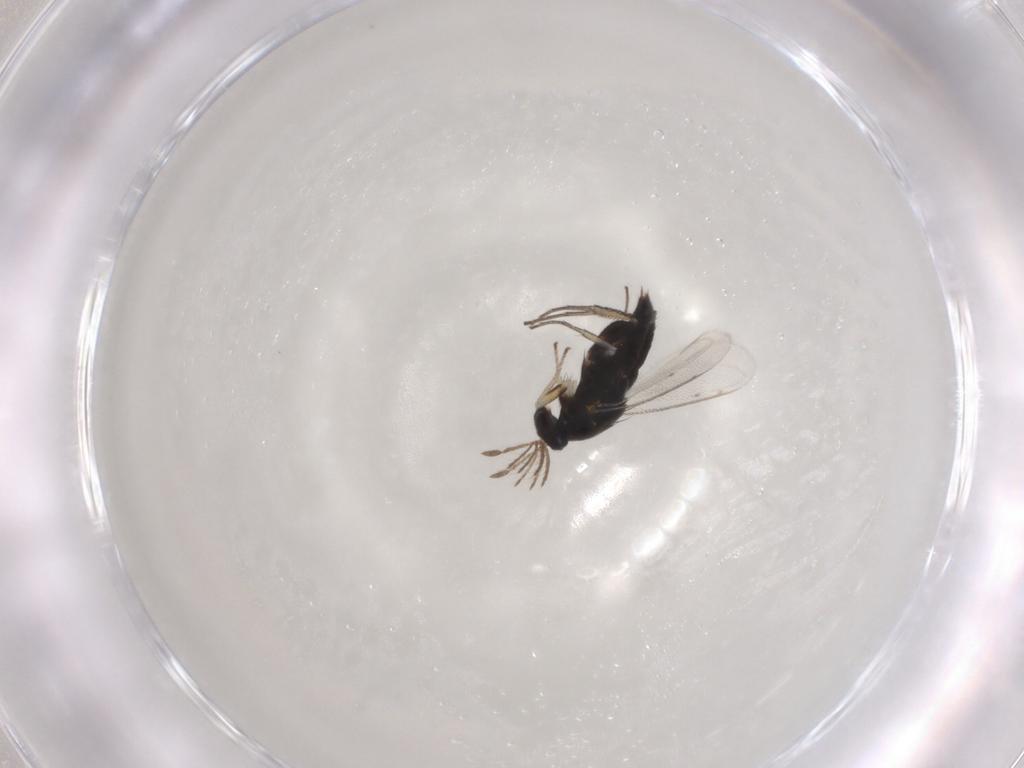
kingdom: Animalia
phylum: Arthropoda
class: Insecta
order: Hymenoptera
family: Eulophidae
